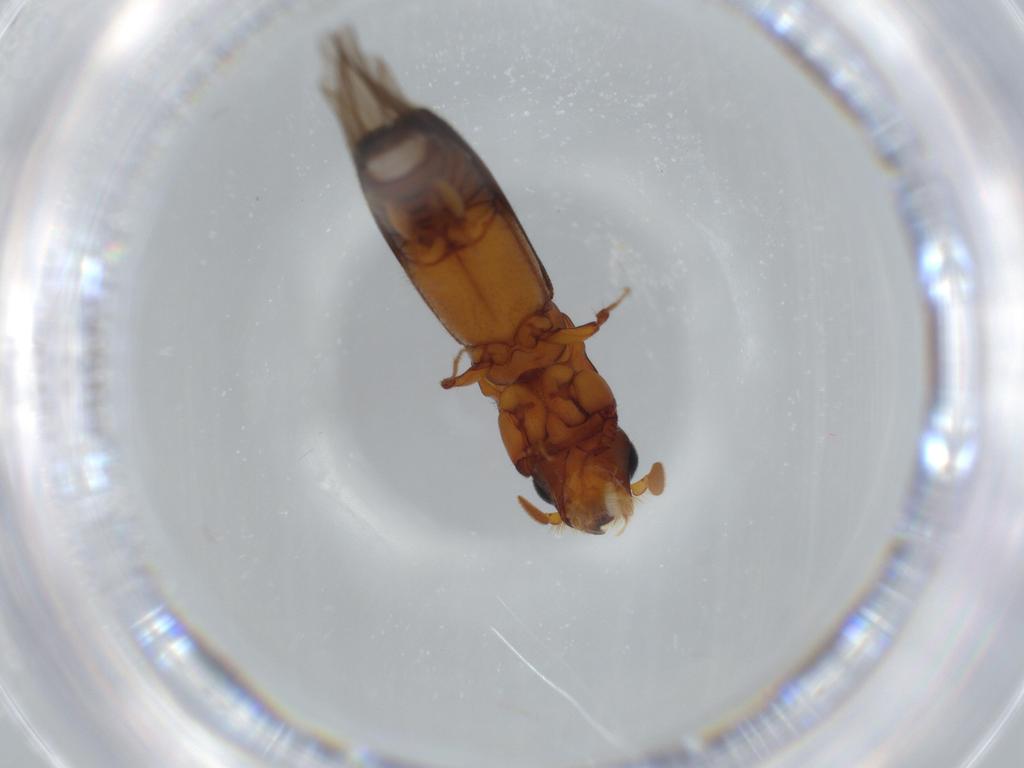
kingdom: Animalia
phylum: Arthropoda
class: Insecta
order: Coleoptera
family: Curculionidae
